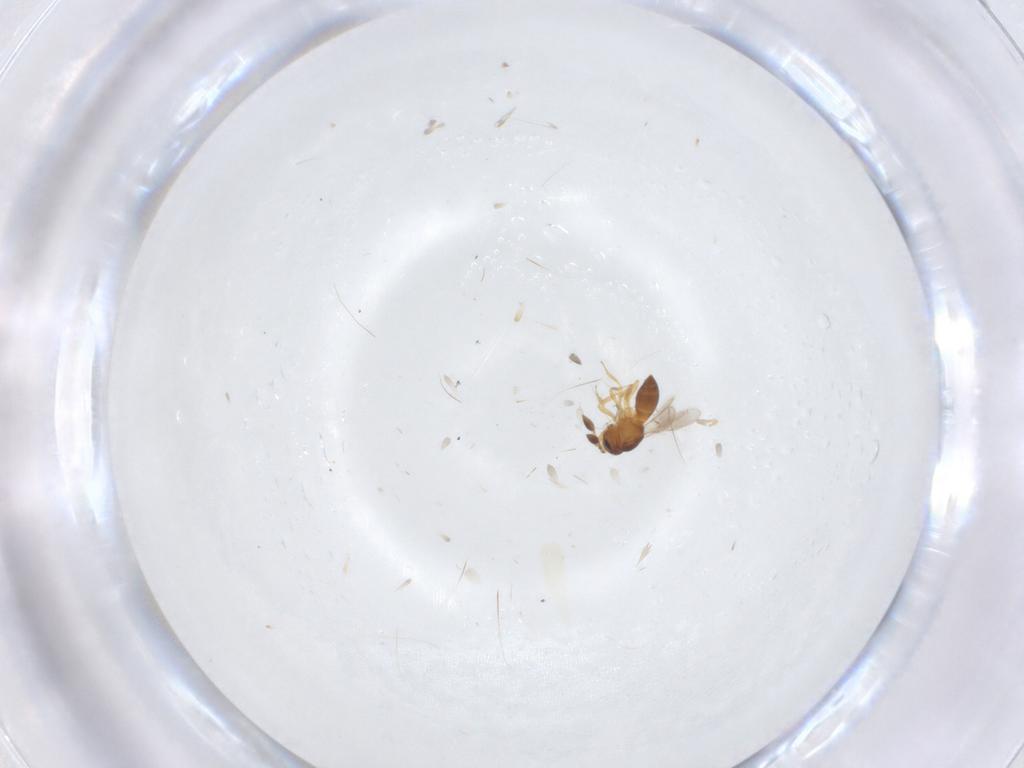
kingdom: Animalia
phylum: Arthropoda
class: Insecta
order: Hymenoptera
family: Scelionidae
